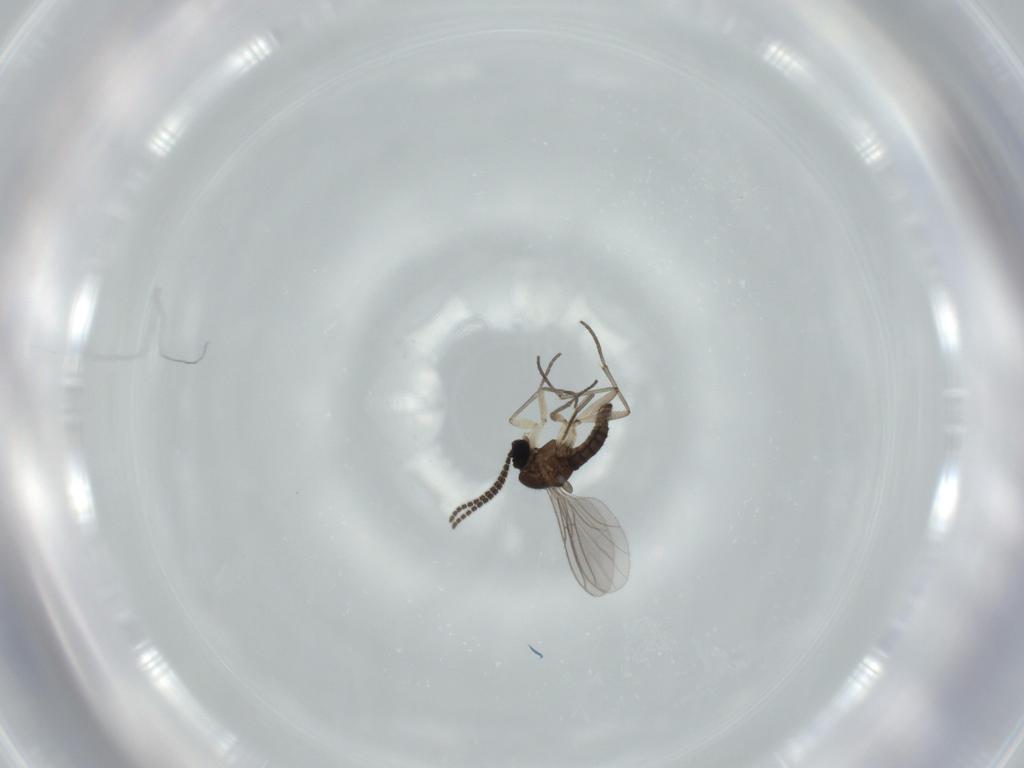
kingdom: Animalia
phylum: Arthropoda
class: Insecta
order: Diptera
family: Sciaridae
